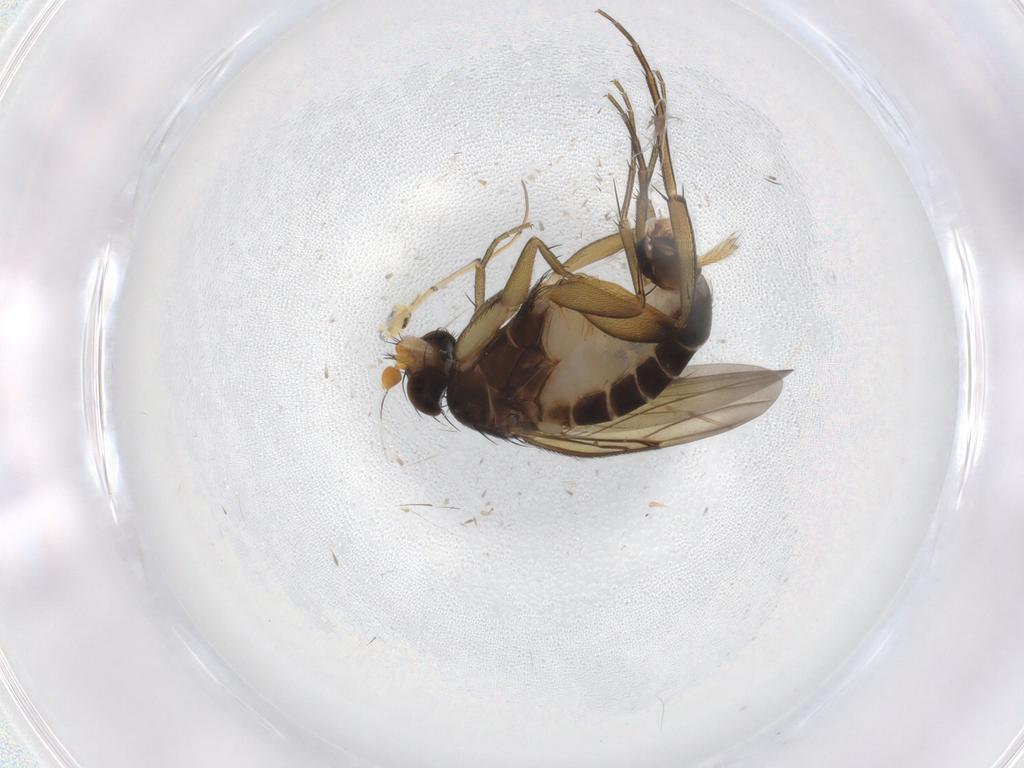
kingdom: Animalia
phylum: Arthropoda
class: Insecta
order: Diptera
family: Phoridae
